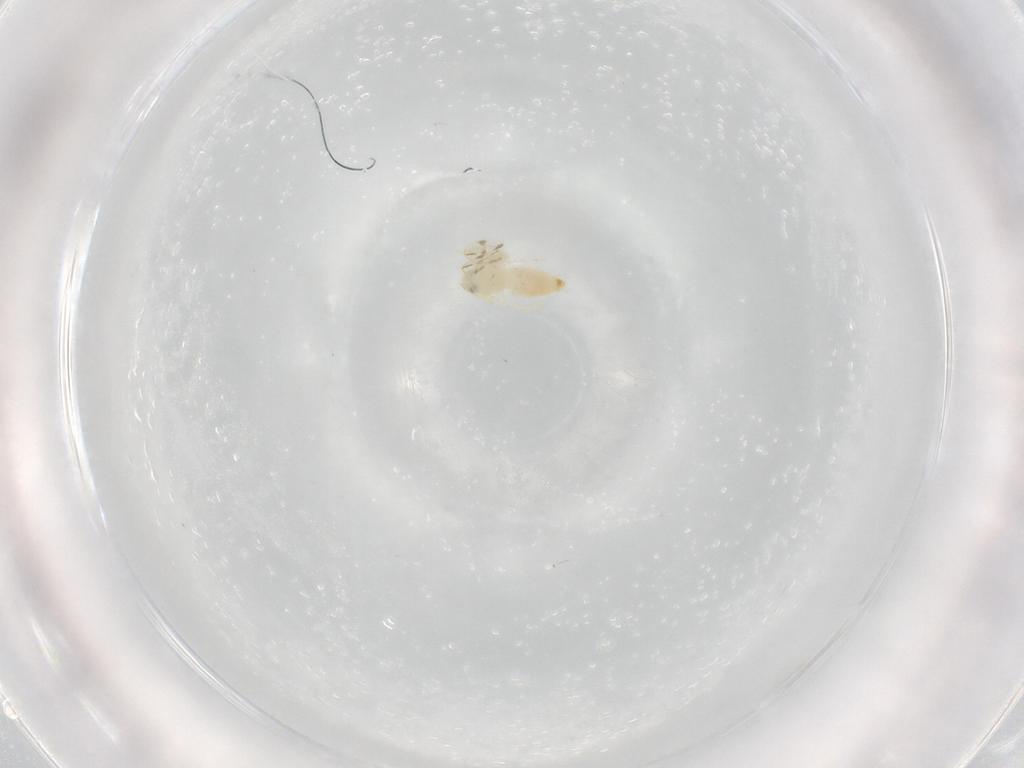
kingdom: Animalia
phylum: Arthropoda
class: Insecta
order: Hemiptera
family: Aleyrodidae
